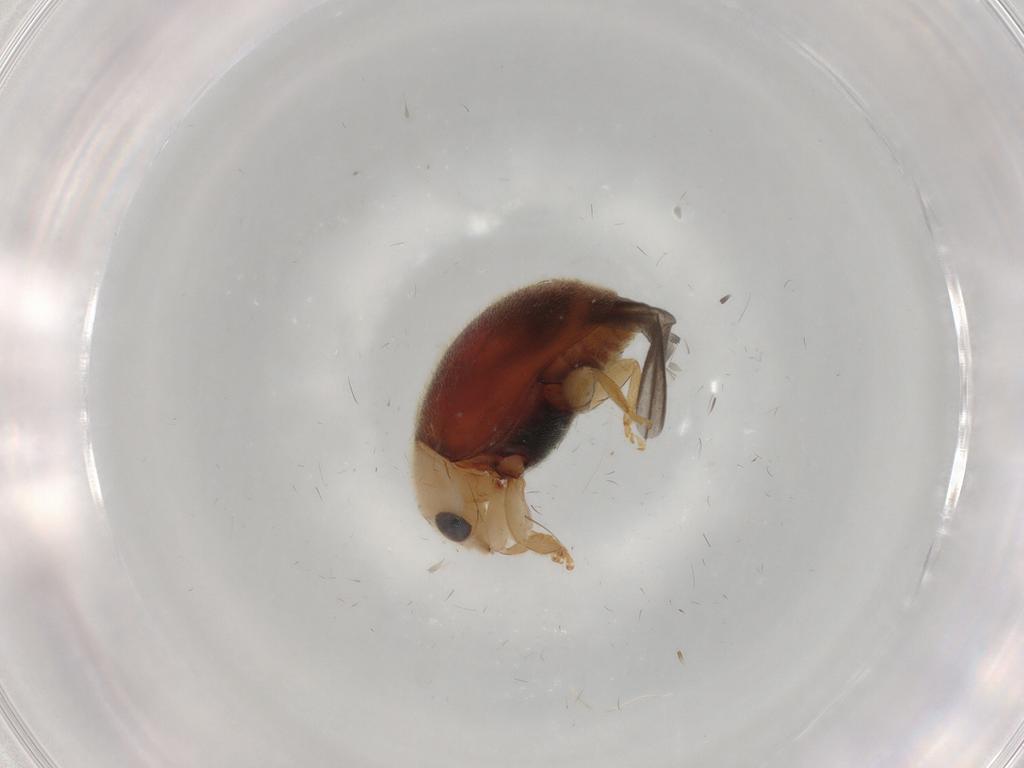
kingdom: Animalia
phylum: Arthropoda
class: Insecta
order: Coleoptera
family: Coccinellidae
